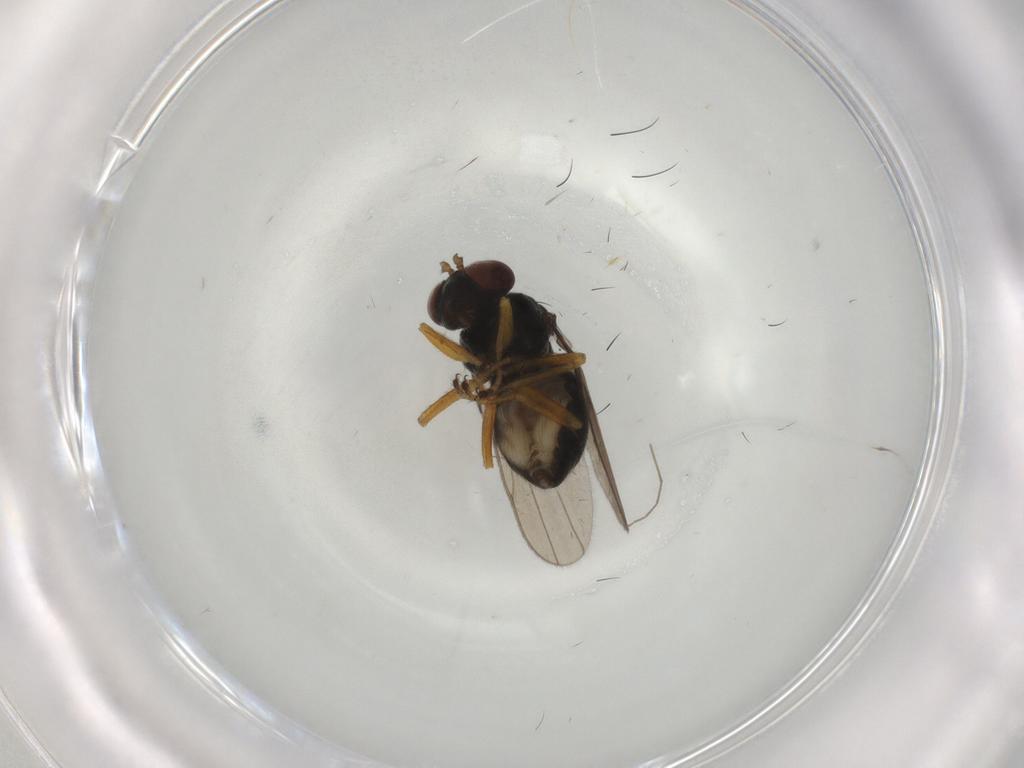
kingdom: Animalia
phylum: Arthropoda
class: Insecta
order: Diptera
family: Ephydridae
